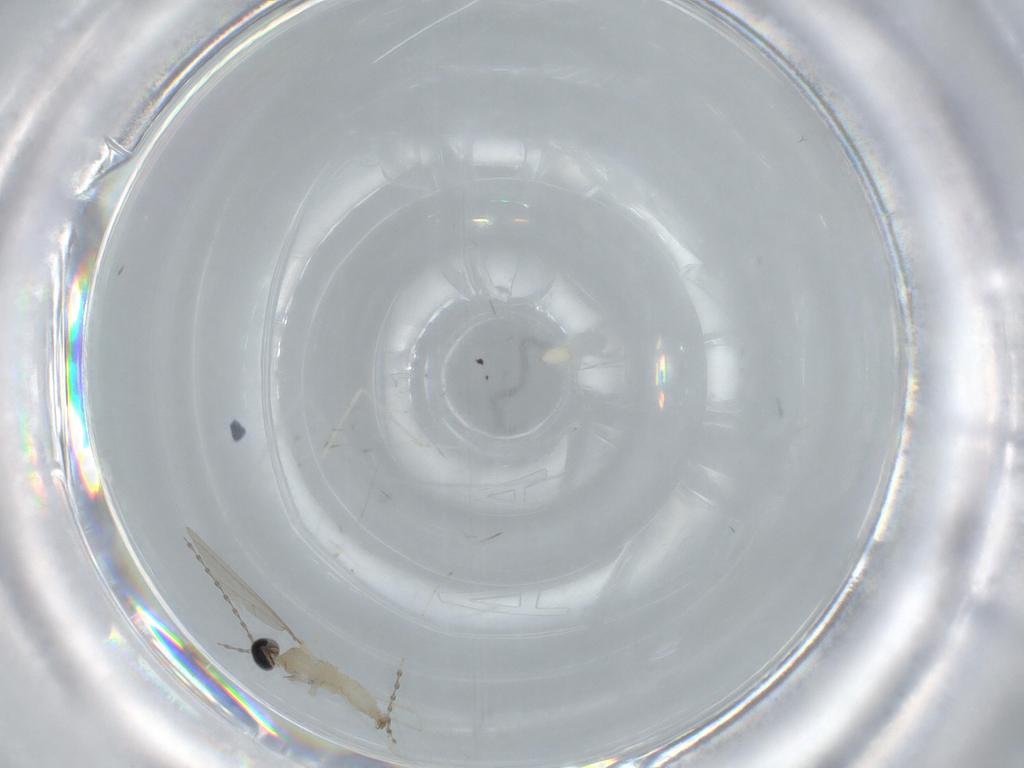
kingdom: Animalia
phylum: Arthropoda
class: Insecta
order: Diptera
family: Cecidomyiidae
